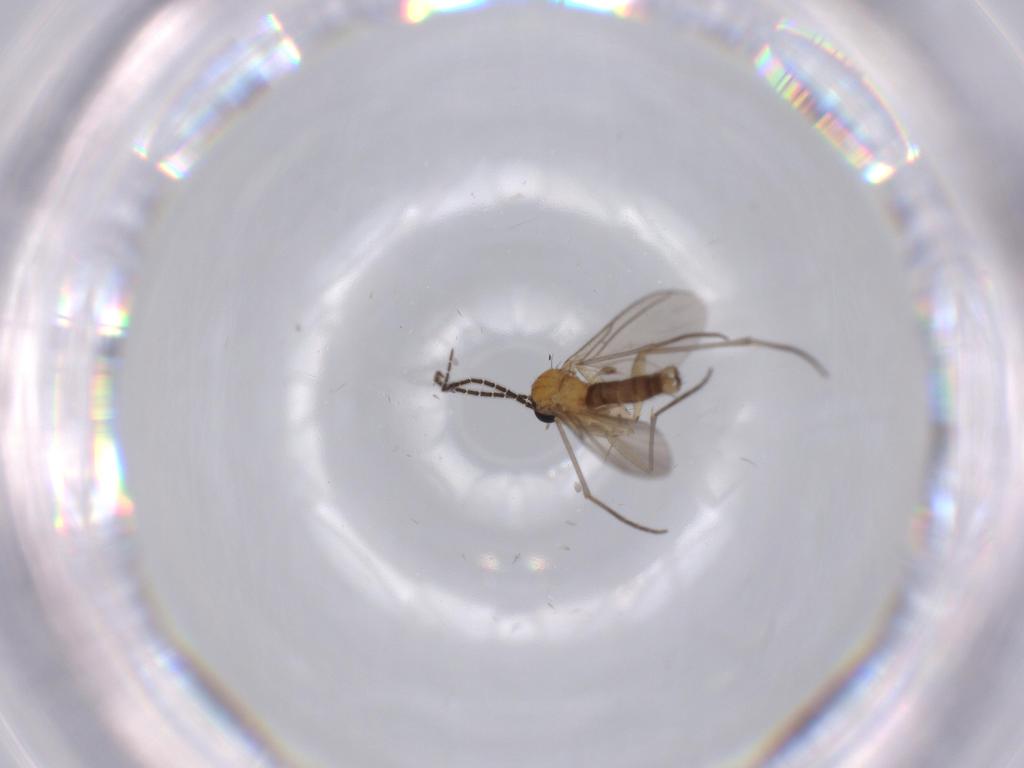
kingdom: Animalia
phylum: Arthropoda
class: Insecta
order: Diptera
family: Sciaridae
